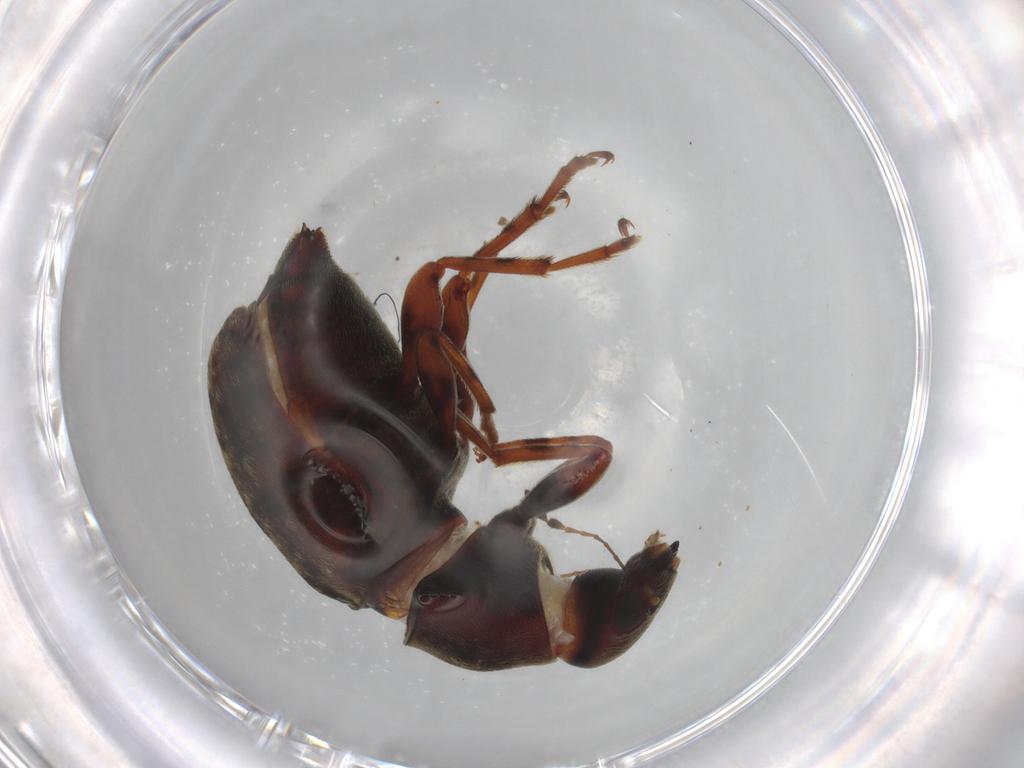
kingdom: Animalia
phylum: Arthropoda
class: Insecta
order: Coleoptera
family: Anthribidae
